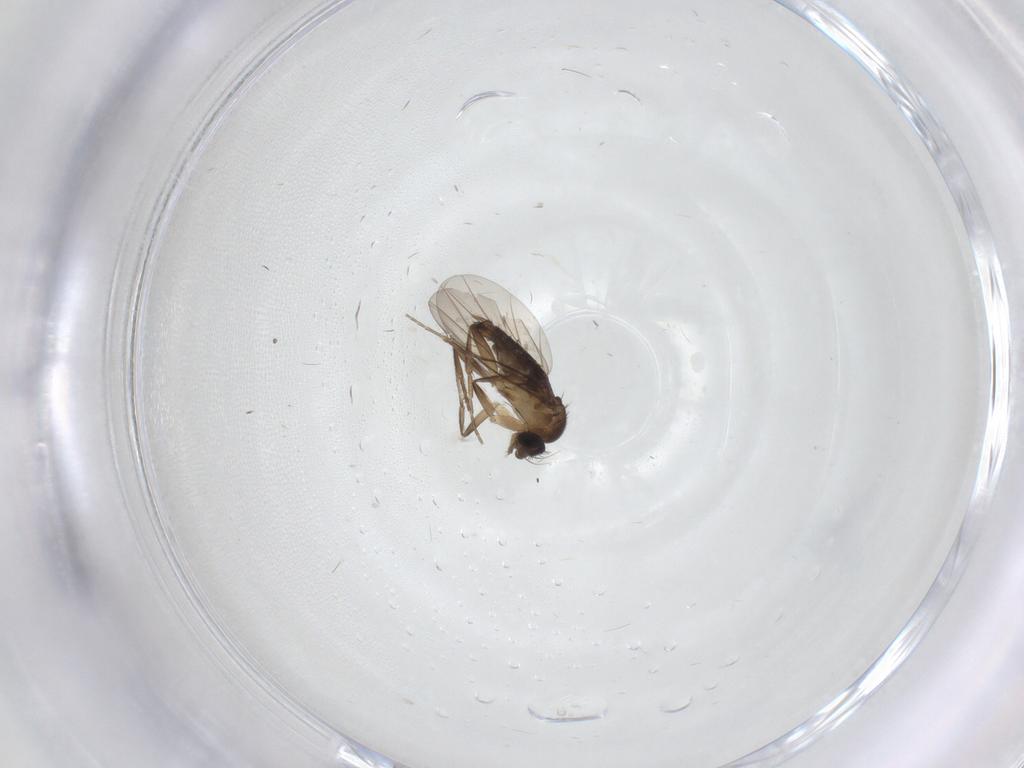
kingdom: Animalia
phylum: Arthropoda
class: Insecta
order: Diptera
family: Phoridae
